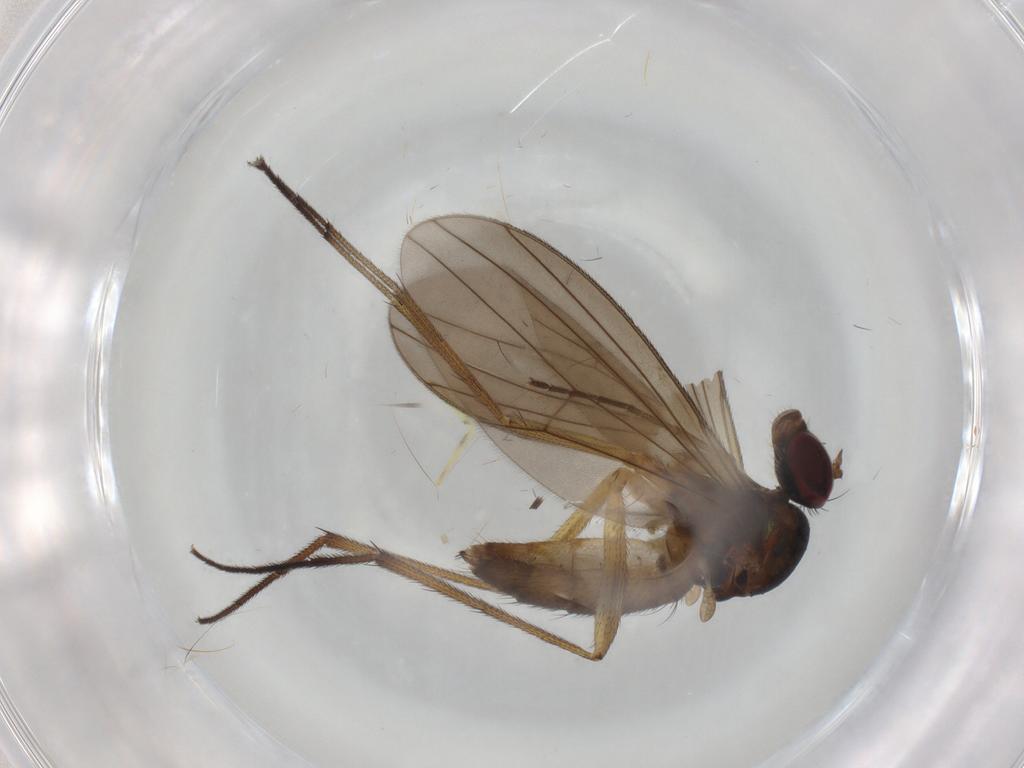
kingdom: Animalia
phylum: Arthropoda
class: Insecta
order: Diptera
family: Dolichopodidae
